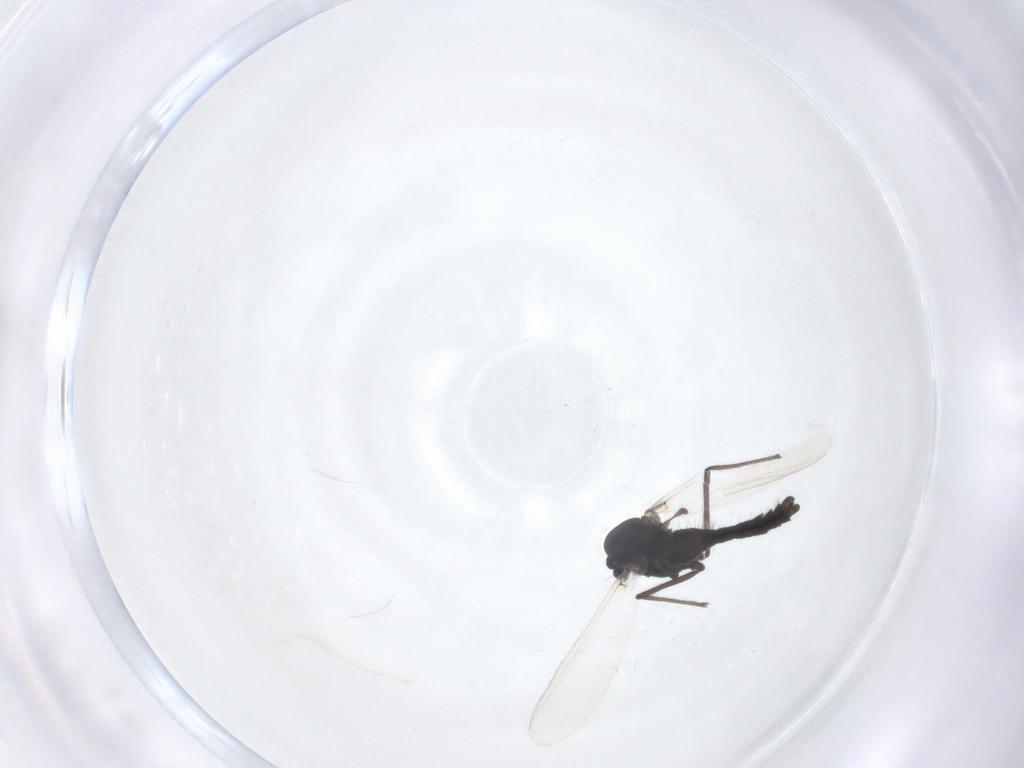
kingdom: Animalia
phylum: Arthropoda
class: Insecta
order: Diptera
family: Chironomidae
